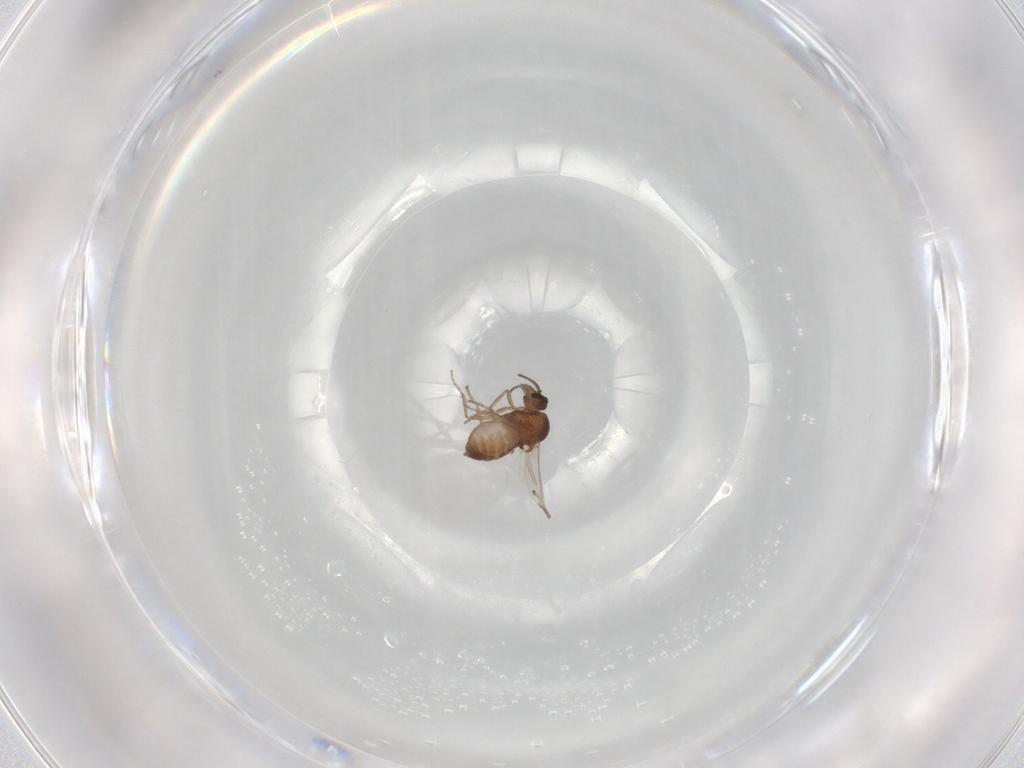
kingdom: Animalia
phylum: Arthropoda
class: Insecta
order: Diptera
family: Ceratopogonidae
